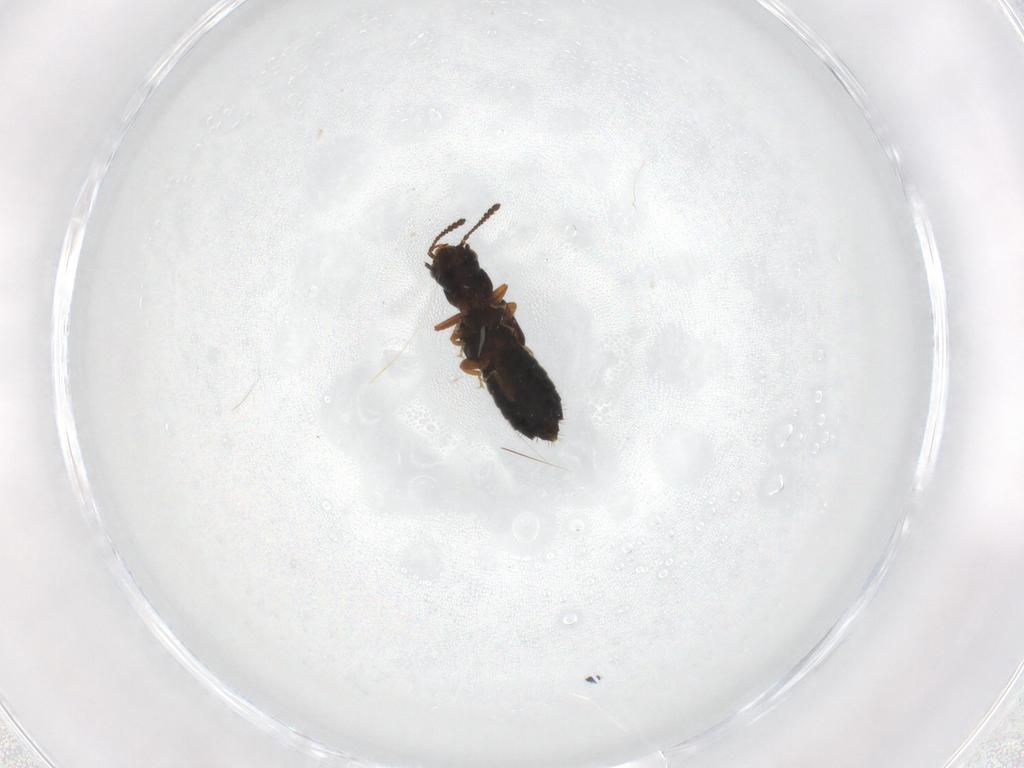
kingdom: Animalia
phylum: Arthropoda
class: Insecta
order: Coleoptera
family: Staphylinidae
